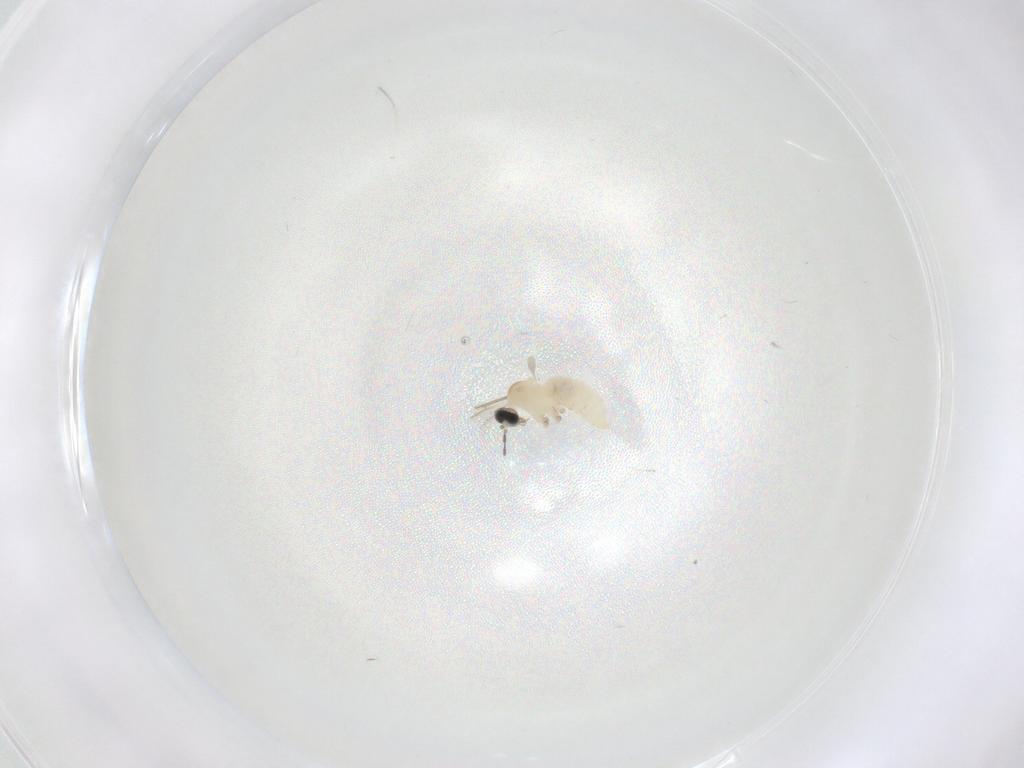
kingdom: Animalia
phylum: Arthropoda
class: Insecta
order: Diptera
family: Cecidomyiidae
